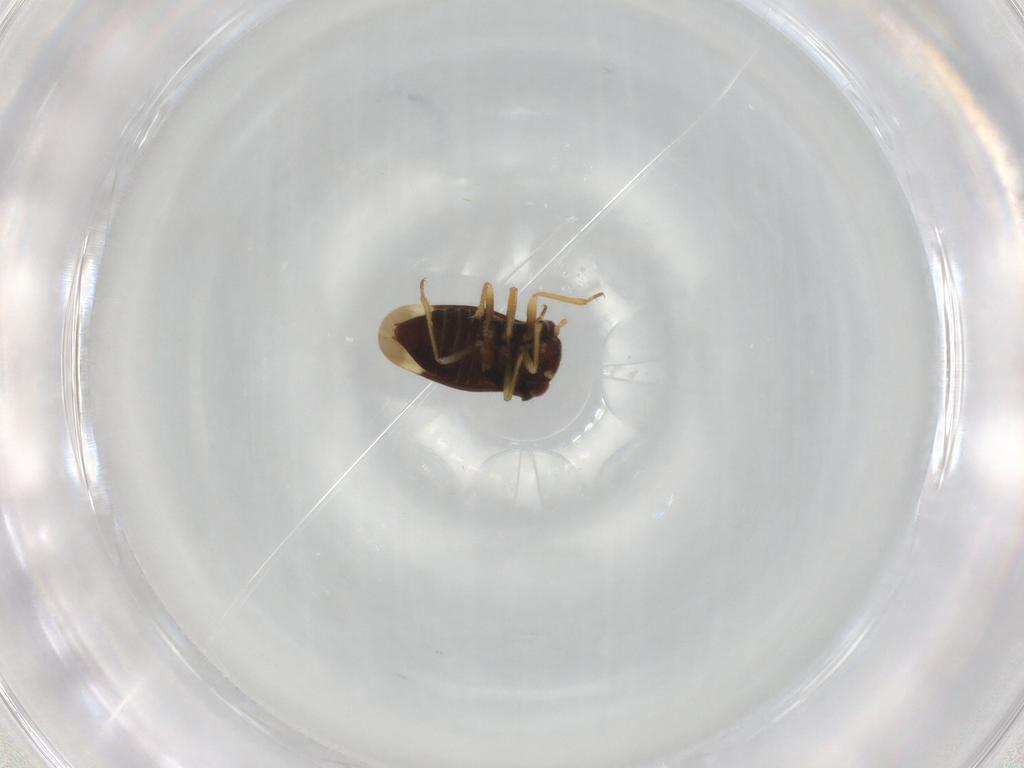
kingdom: Animalia
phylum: Arthropoda
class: Insecta
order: Hemiptera
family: Schizopteridae
